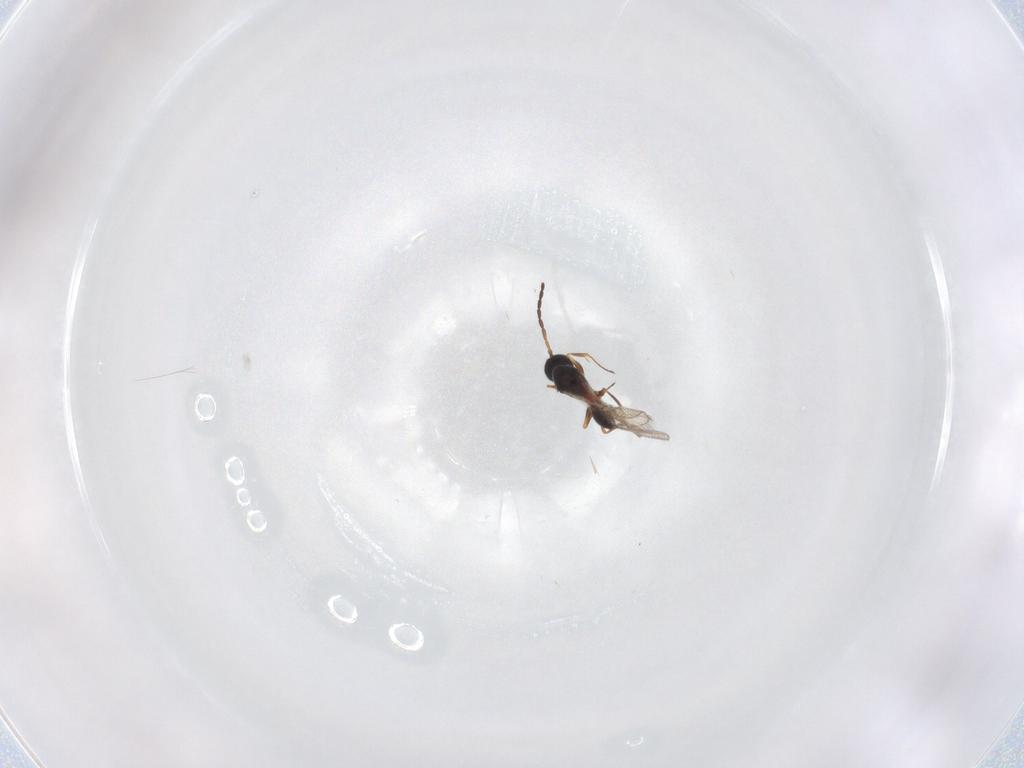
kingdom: Animalia
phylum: Arthropoda
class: Insecta
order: Hymenoptera
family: Figitidae
